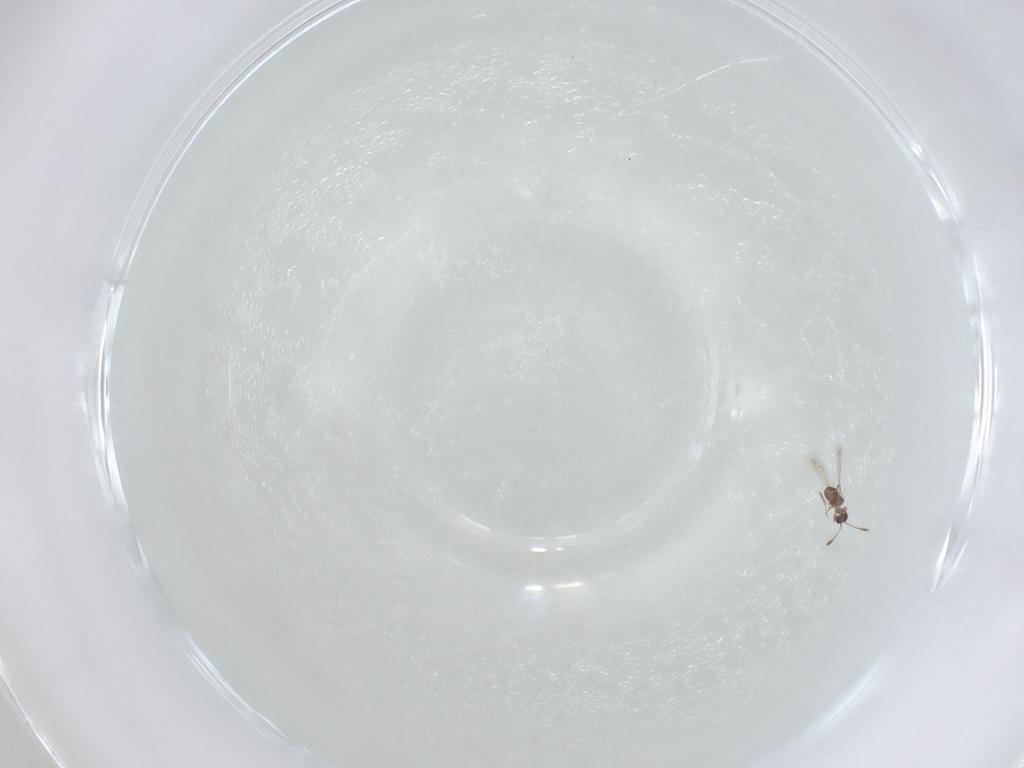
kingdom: Animalia
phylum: Arthropoda
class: Insecta
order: Hymenoptera
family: Mymaridae
